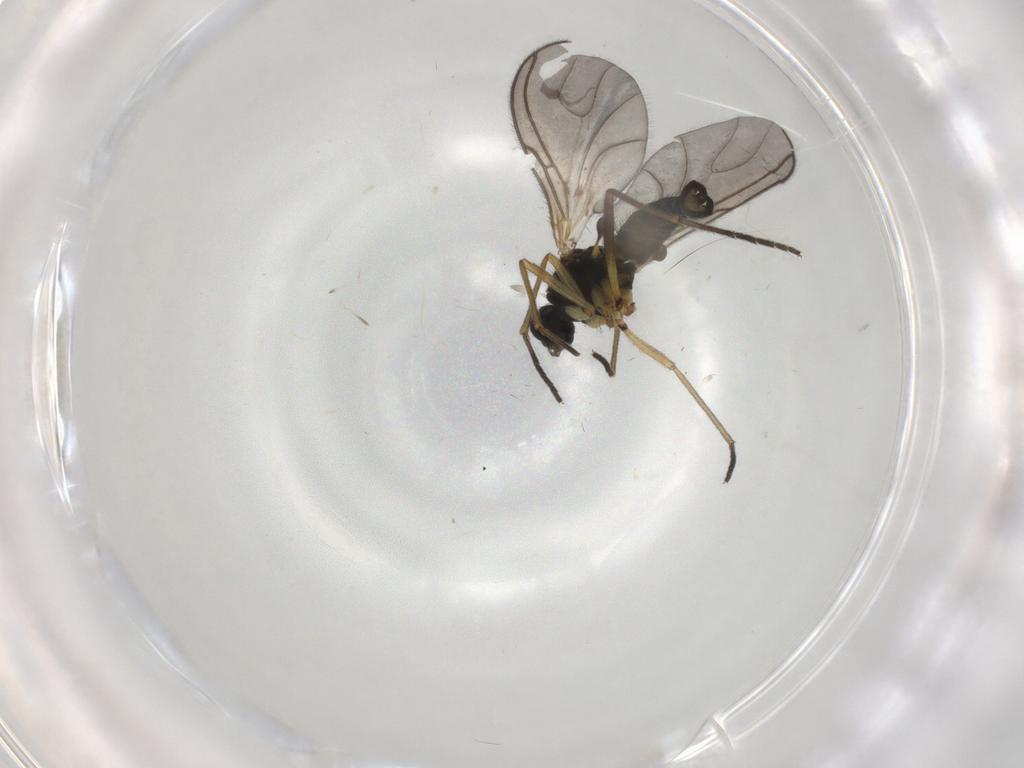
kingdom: Animalia
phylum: Arthropoda
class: Insecta
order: Diptera
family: Sciaridae
